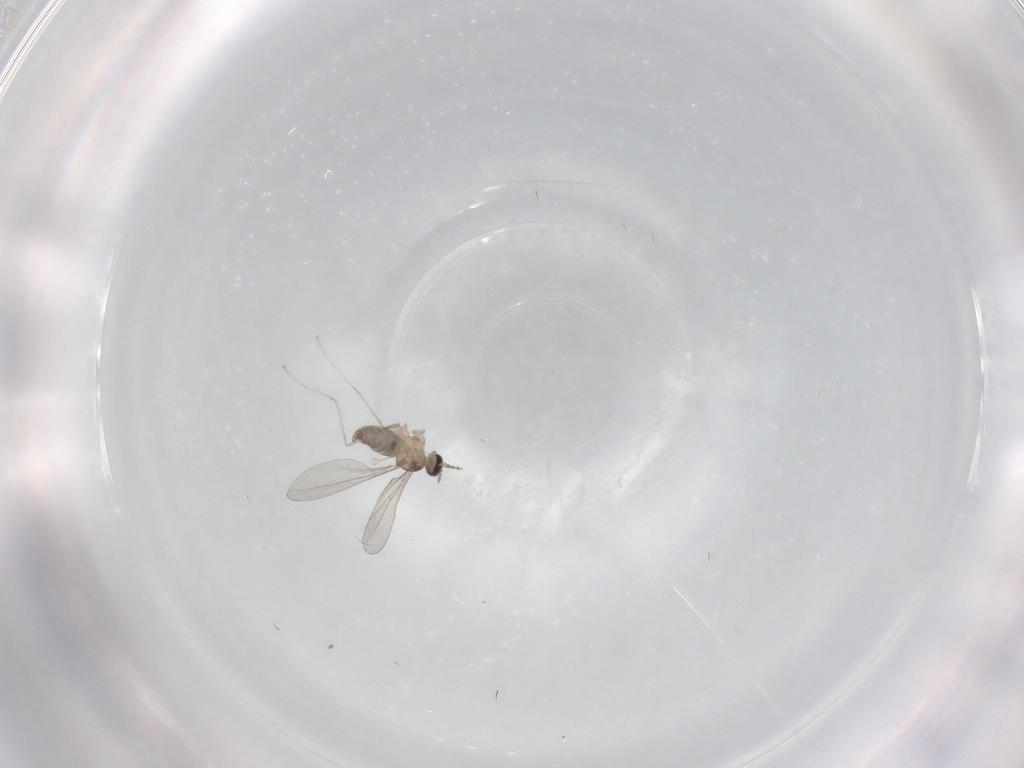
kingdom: Animalia
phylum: Arthropoda
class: Insecta
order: Diptera
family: Cecidomyiidae
